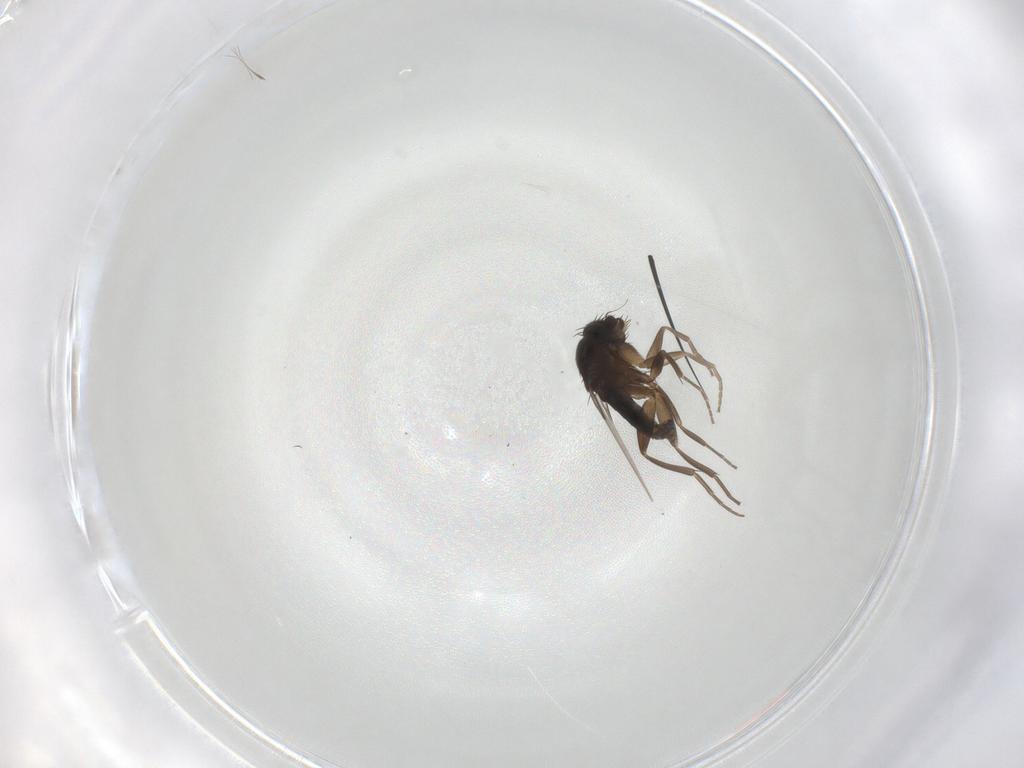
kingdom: Animalia
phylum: Arthropoda
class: Insecta
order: Diptera
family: Phoridae
